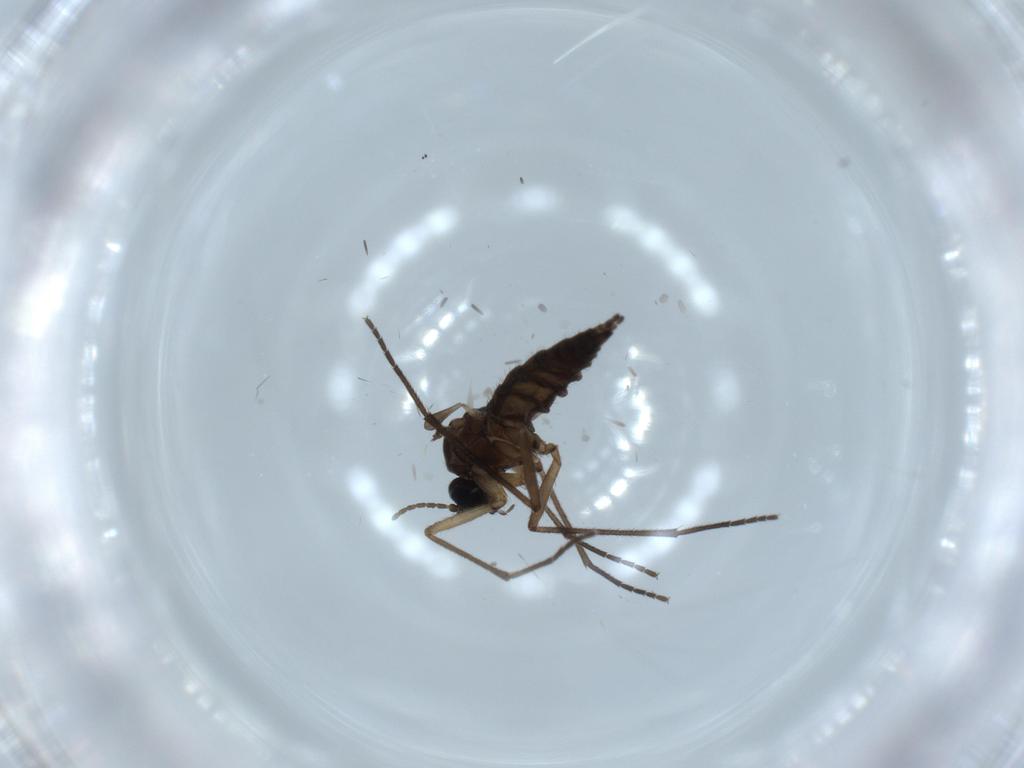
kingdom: Animalia
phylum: Arthropoda
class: Insecta
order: Diptera
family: Sciaridae
